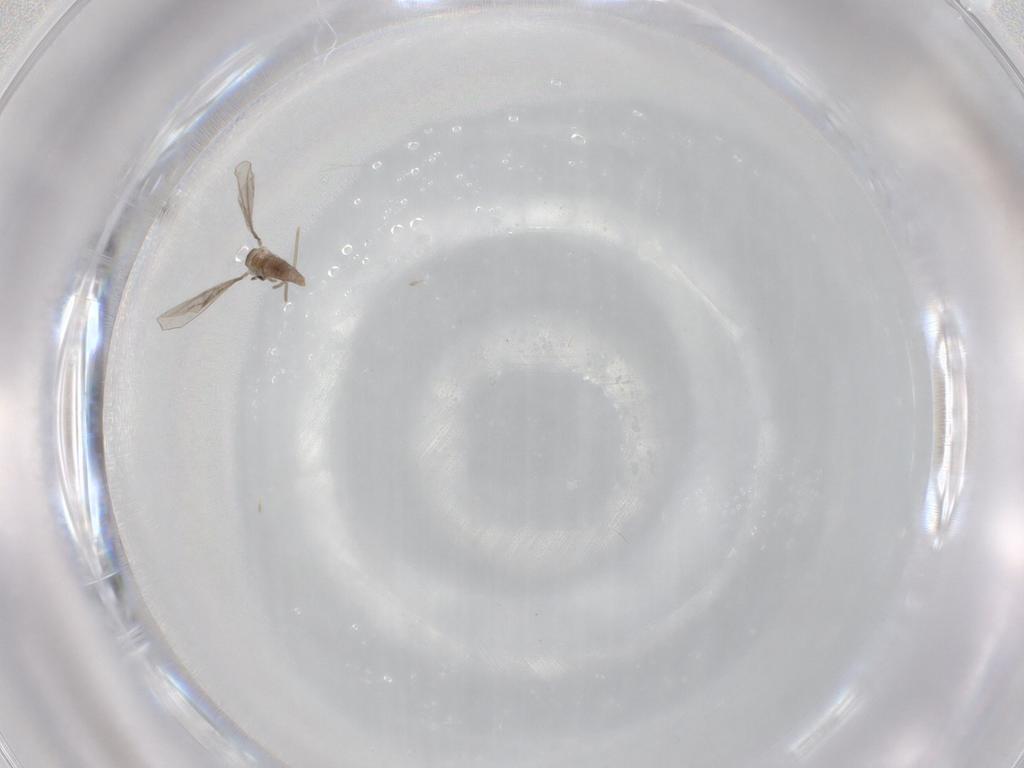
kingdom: Animalia
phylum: Arthropoda
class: Insecta
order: Diptera
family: Cecidomyiidae
